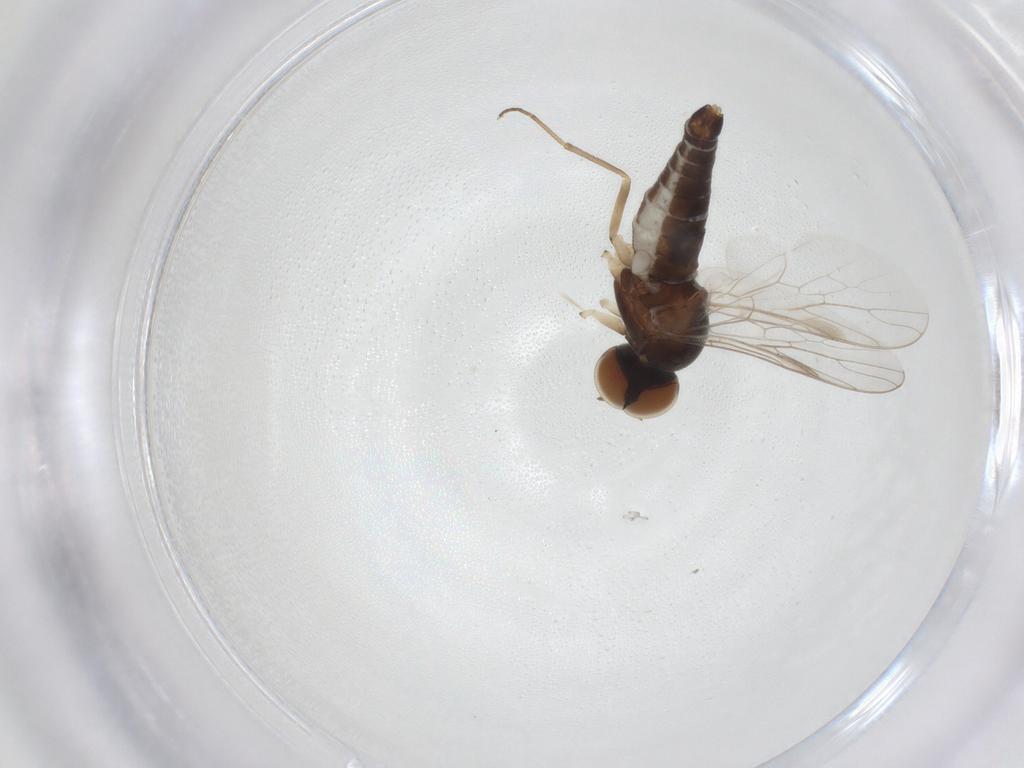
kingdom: Animalia
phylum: Arthropoda
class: Insecta
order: Diptera
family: Scenopinidae
